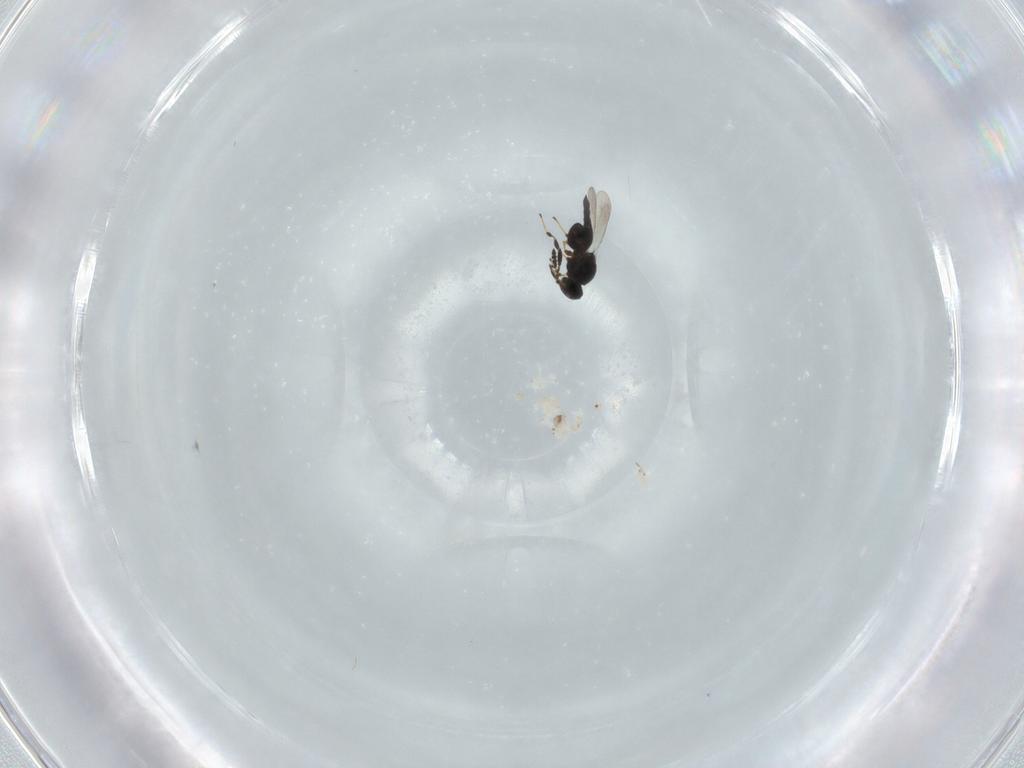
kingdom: Animalia
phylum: Arthropoda
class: Insecta
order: Hymenoptera
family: Platygastridae
